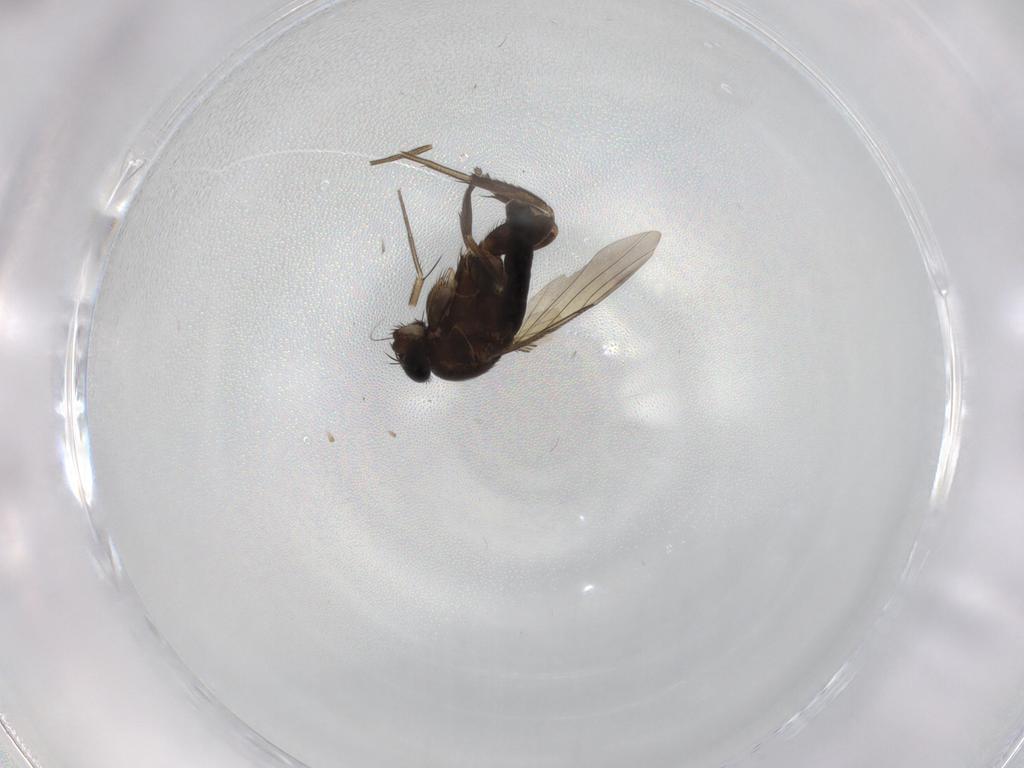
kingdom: Animalia
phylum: Arthropoda
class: Insecta
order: Diptera
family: Phoridae
